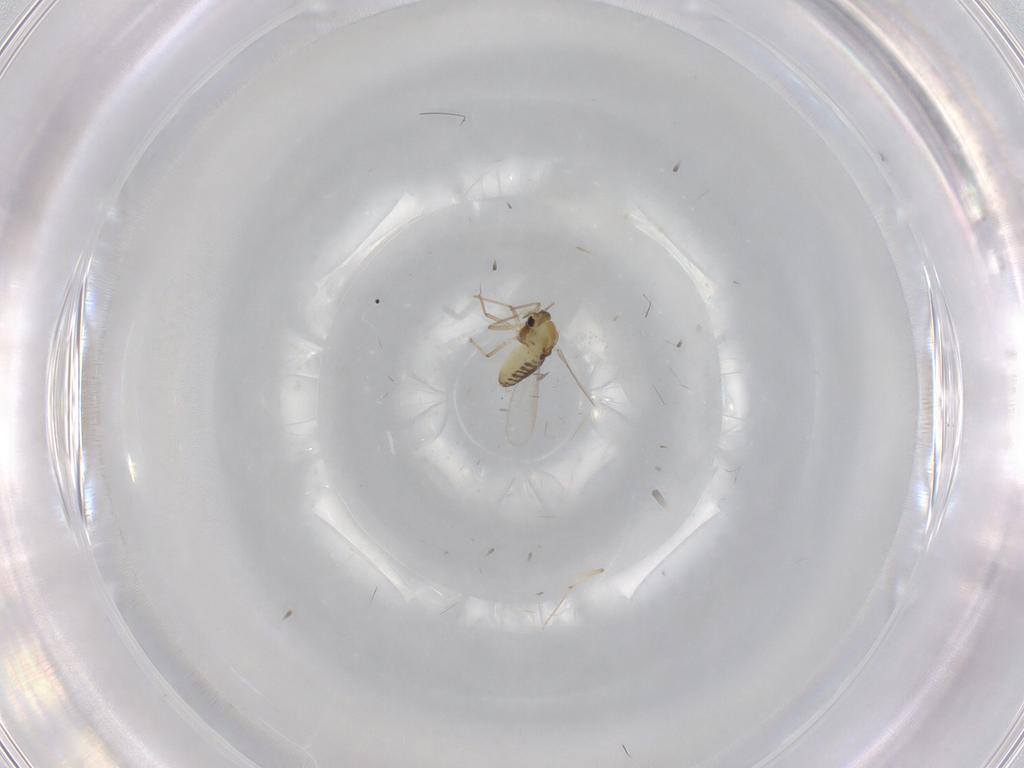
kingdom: Animalia
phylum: Arthropoda
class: Insecta
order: Diptera
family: Chironomidae
